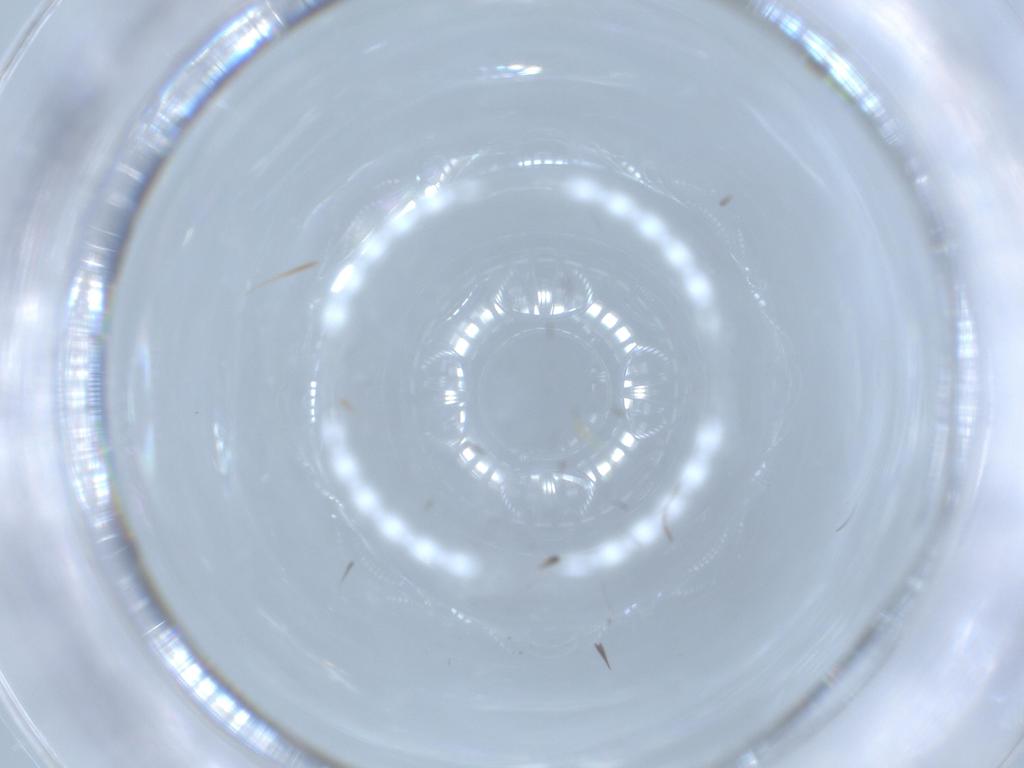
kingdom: Animalia
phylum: Arthropoda
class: Insecta
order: Diptera
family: Chironomidae
